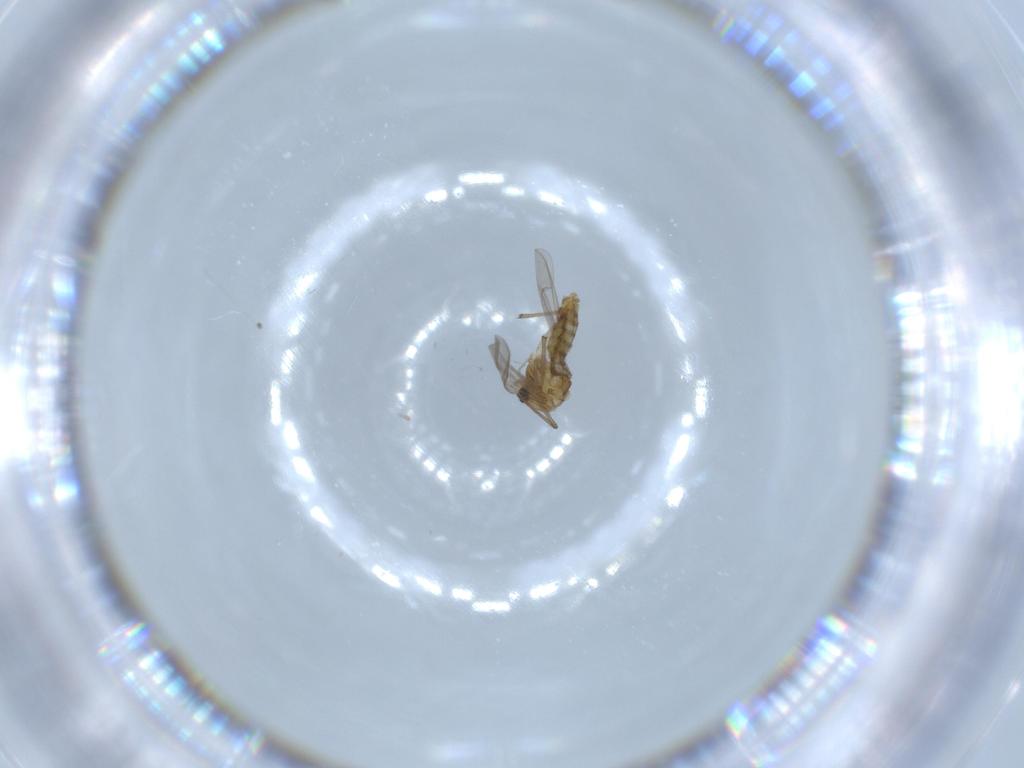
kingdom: Animalia
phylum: Arthropoda
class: Insecta
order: Diptera
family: Chironomidae
